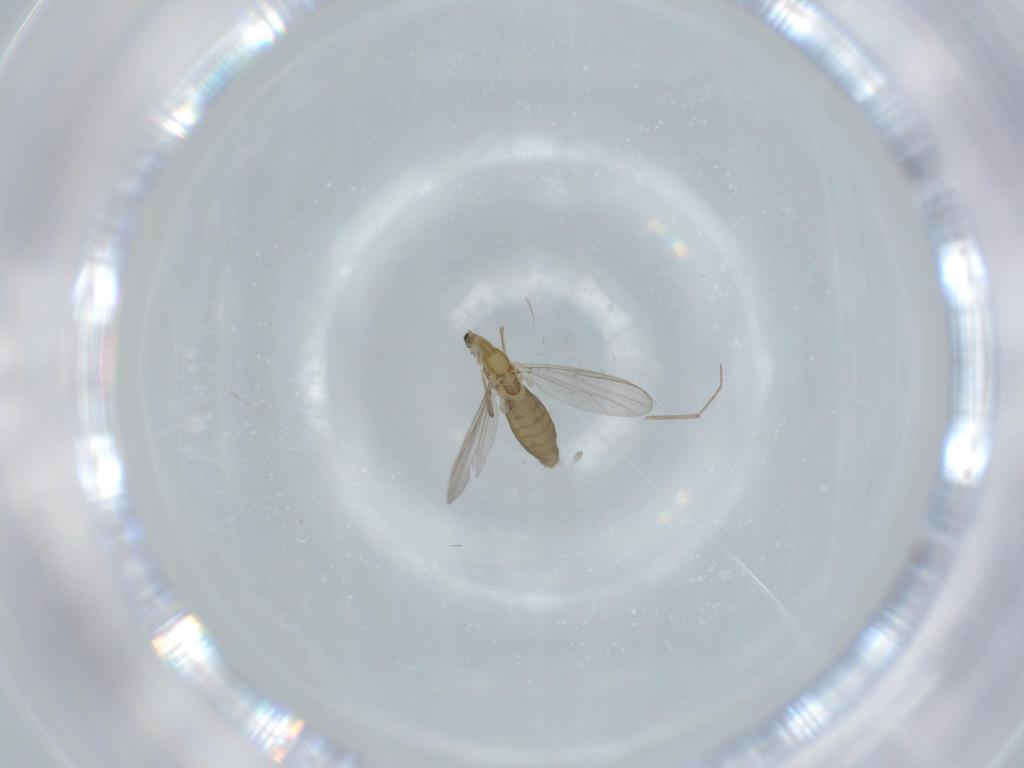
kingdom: Animalia
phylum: Arthropoda
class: Insecta
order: Diptera
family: Chironomidae
